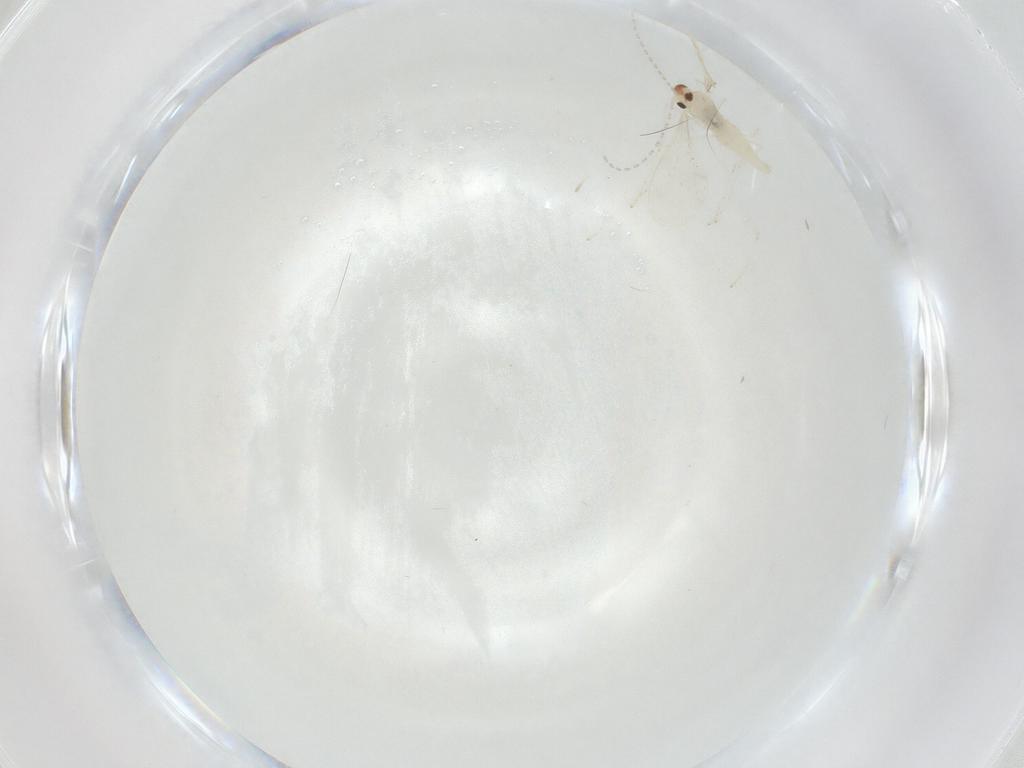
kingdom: Animalia
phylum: Arthropoda
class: Insecta
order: Diptera
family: Cecidomyiidae
